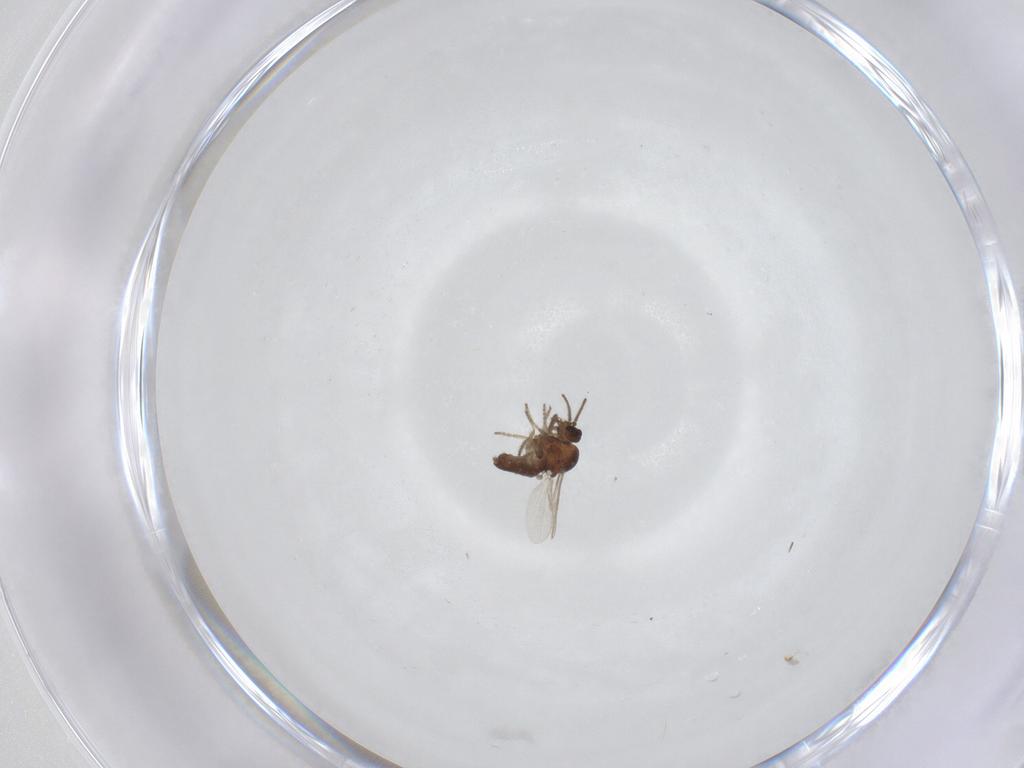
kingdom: Animalia
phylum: Arthropoda
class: Insecta
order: Diptera
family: Ceratopogonidae
